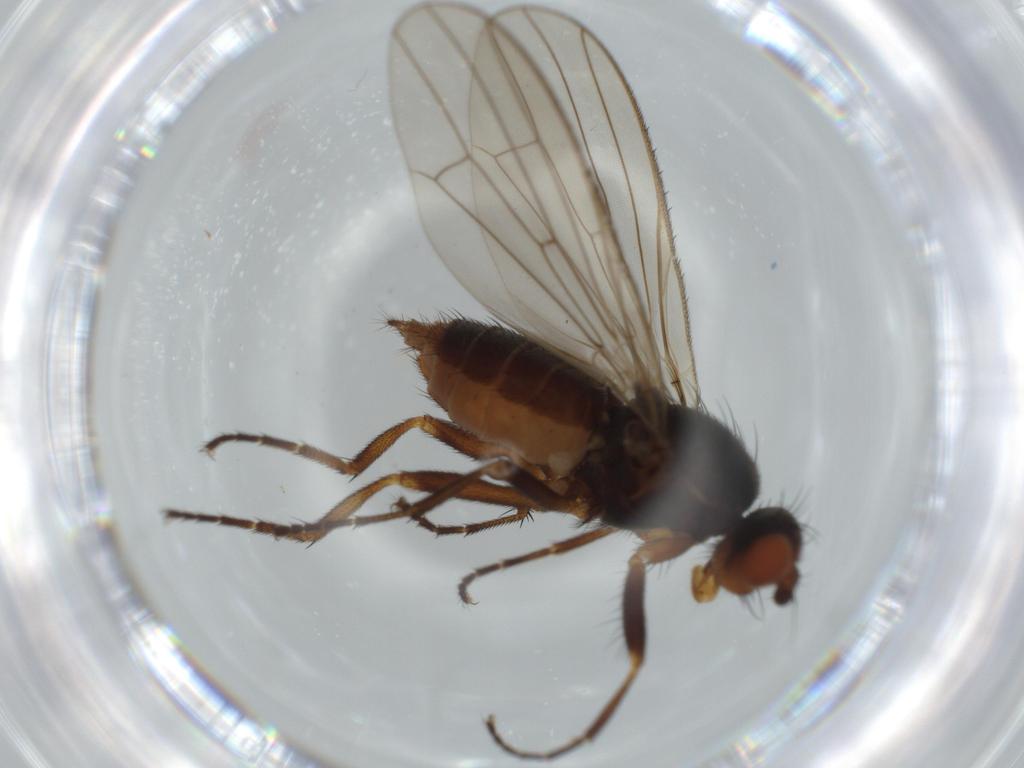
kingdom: Animalia
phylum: Arthropoda
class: Insecta
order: Diptera
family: Heleomyzidae
